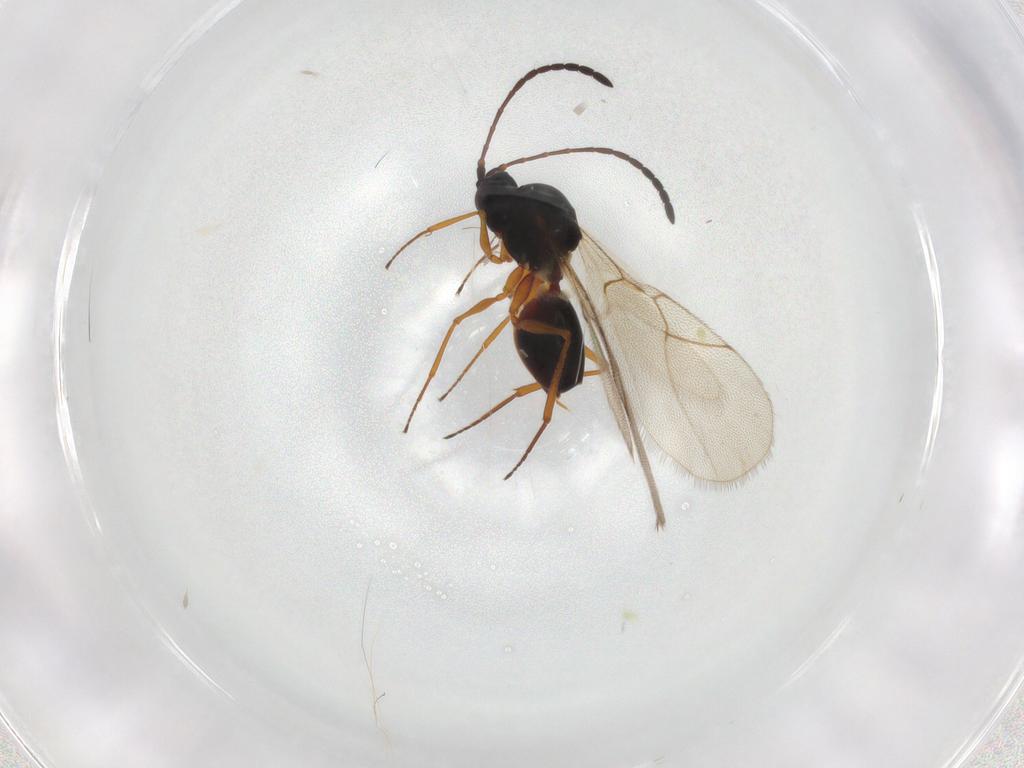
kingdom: Animalia
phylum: Arthropoda
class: Insecta
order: Hymenoptera
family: Figitidae
